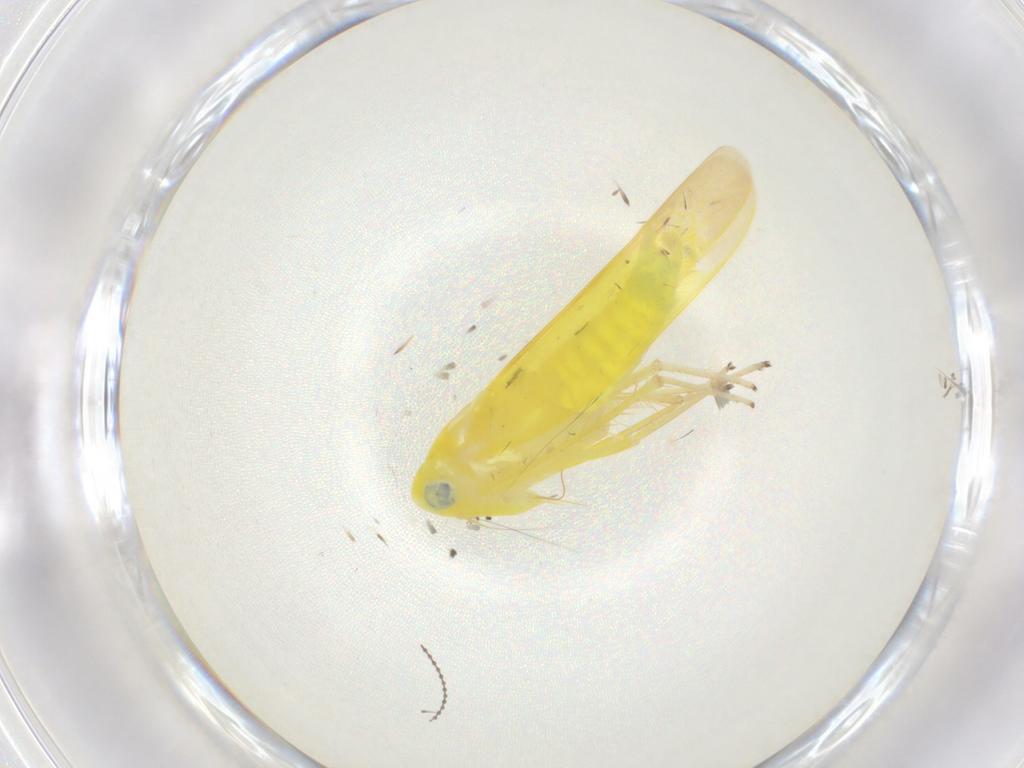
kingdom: Animalia
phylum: Arthropoda
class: Insecta
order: Hemiptera
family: Cicadellidae
